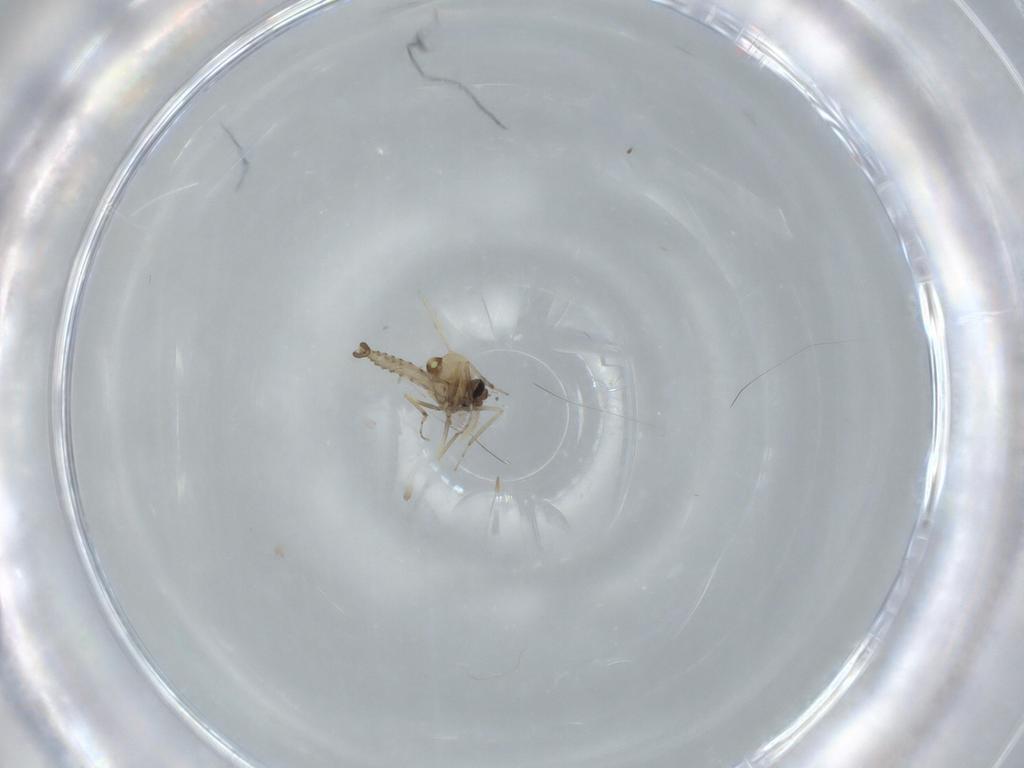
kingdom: Animalia
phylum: Arthropoda
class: Insecta
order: Diptera
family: Ceratopogonidae
